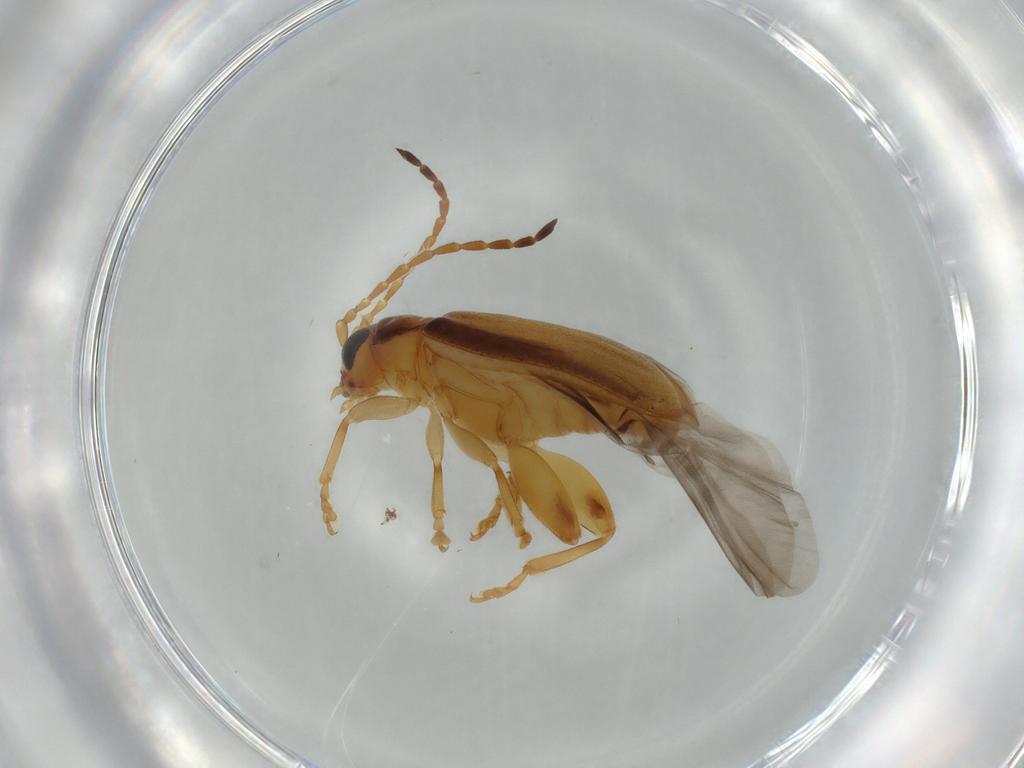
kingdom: Animalia
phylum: Arthropoda
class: Insecta
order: Coleoptera
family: Chrysomelidae
